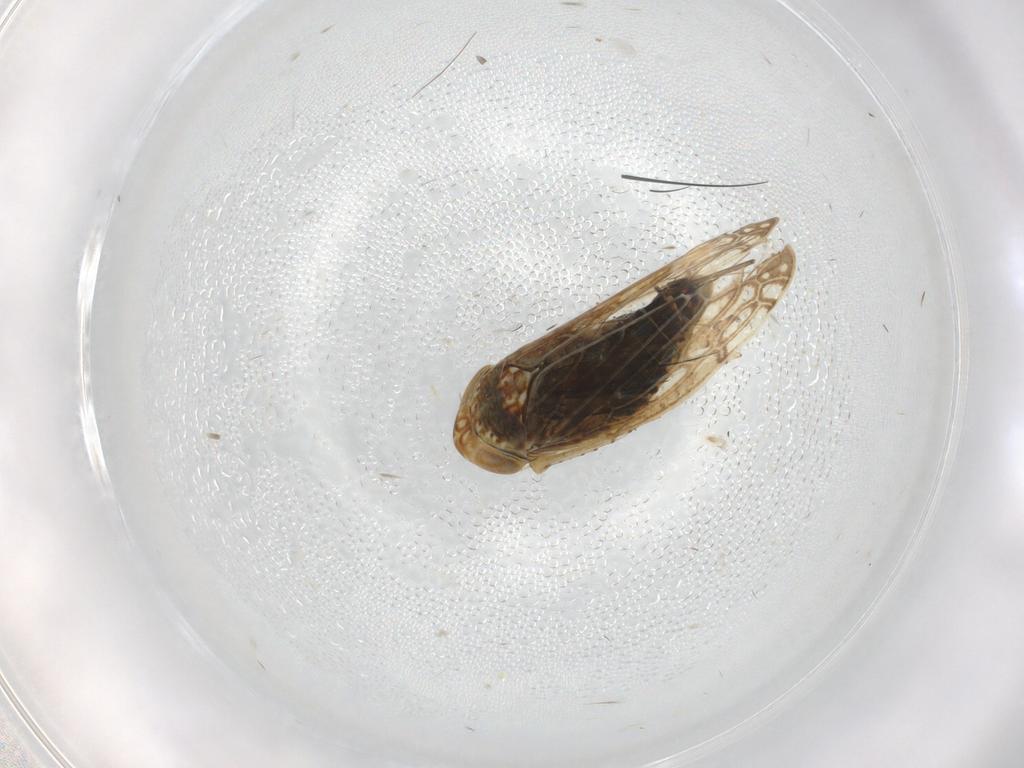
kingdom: Animalia
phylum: Arthropoda
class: Insecta
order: Hemiptera
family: Cicadellidae
